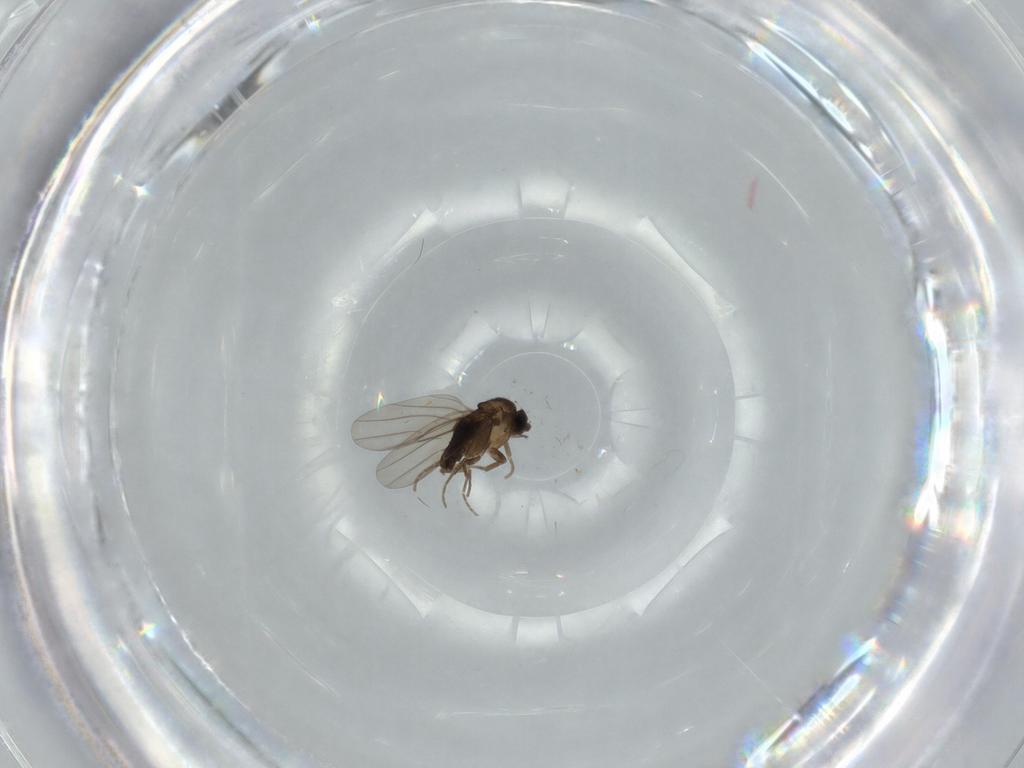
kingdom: Animalia
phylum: Arthropoda
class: Insecta
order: Diptera
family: Phoridae
